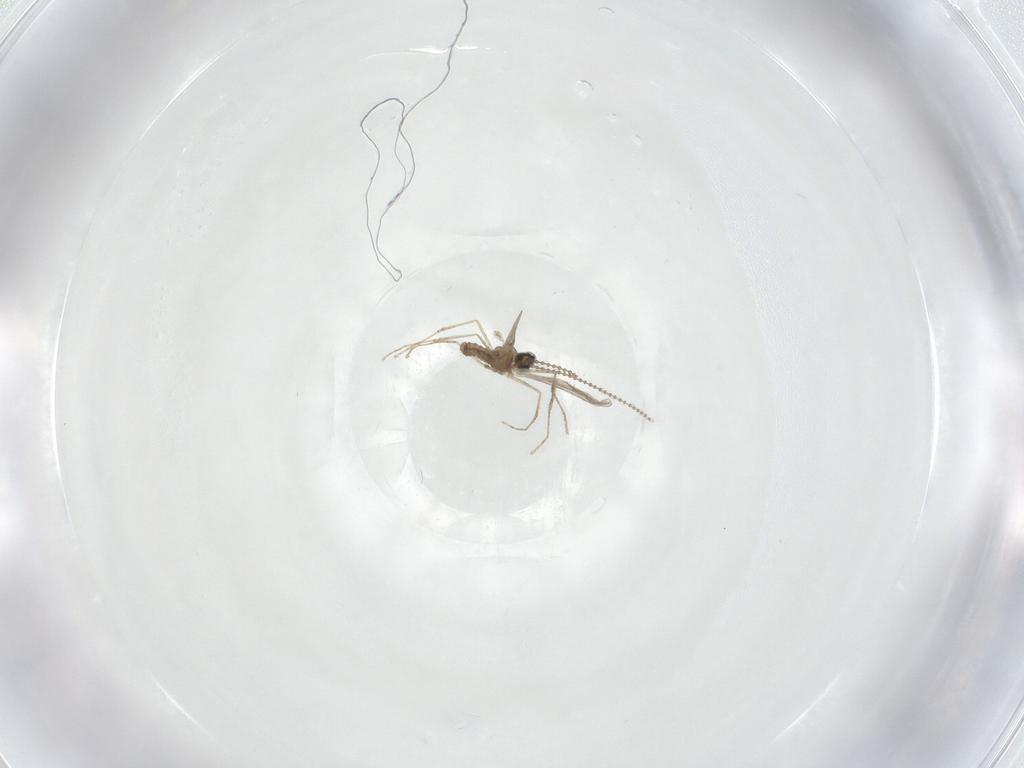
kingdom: Animalia
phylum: Arthropoda
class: Insecta
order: Diptera
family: Cecidomyiidae
